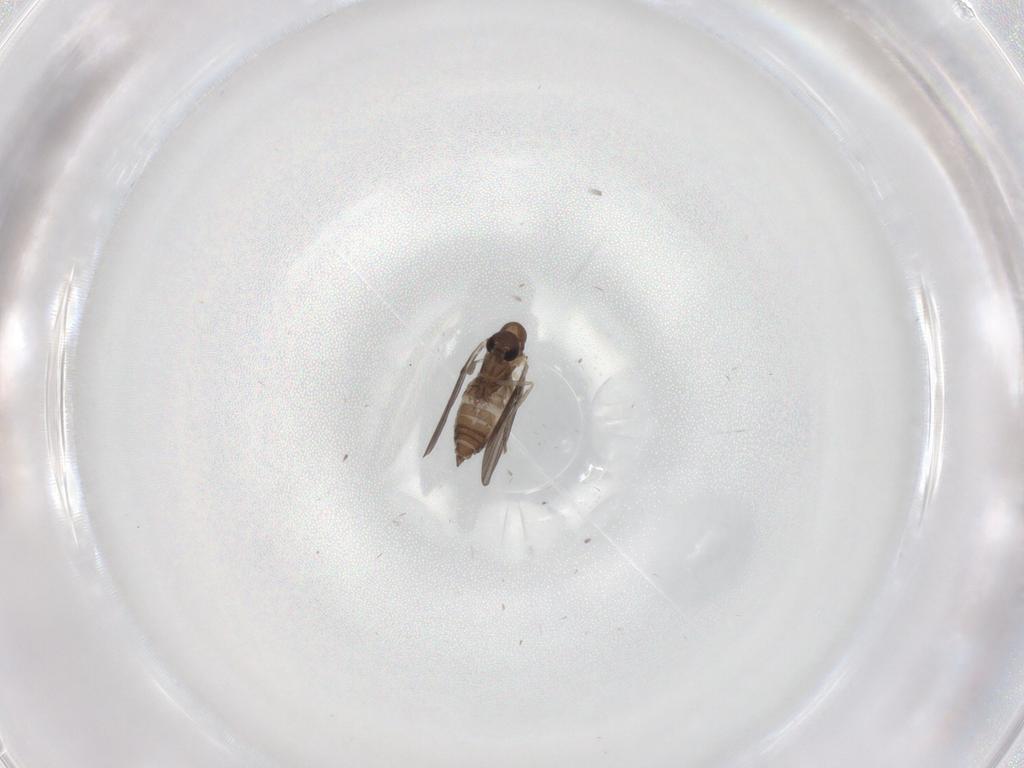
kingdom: Animalia
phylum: Arthropoda
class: Insecta
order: Diptera
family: Sciaridae
